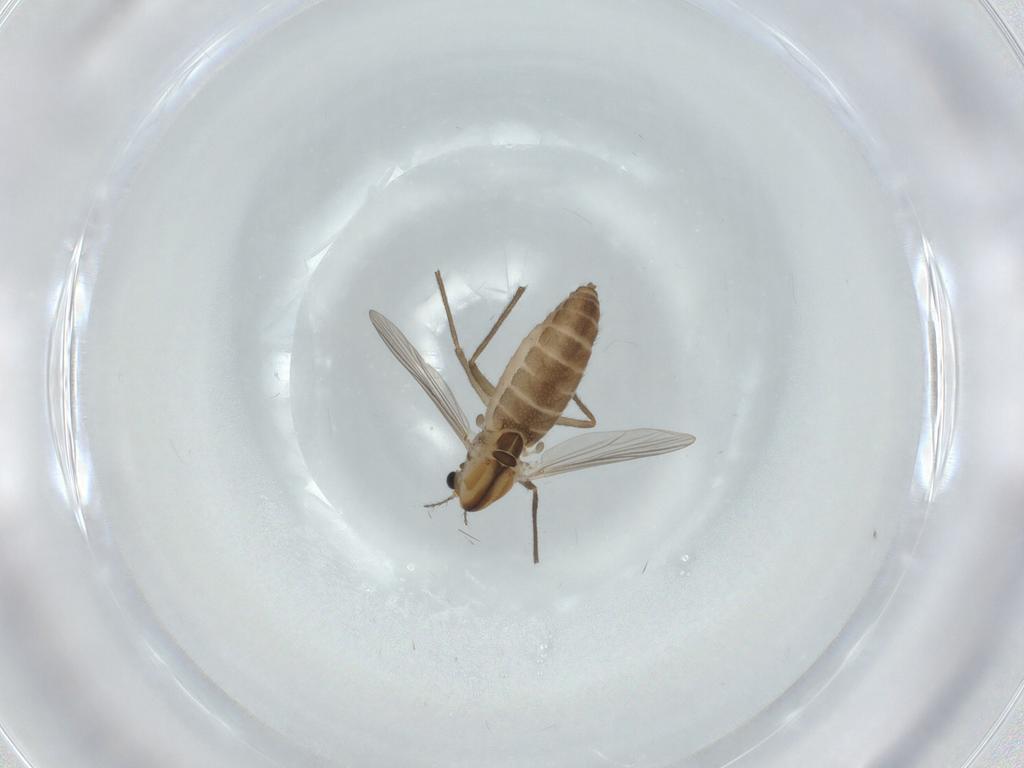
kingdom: Animalia
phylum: Arthropoda
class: Insecta
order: Diptera
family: Chironomidae
